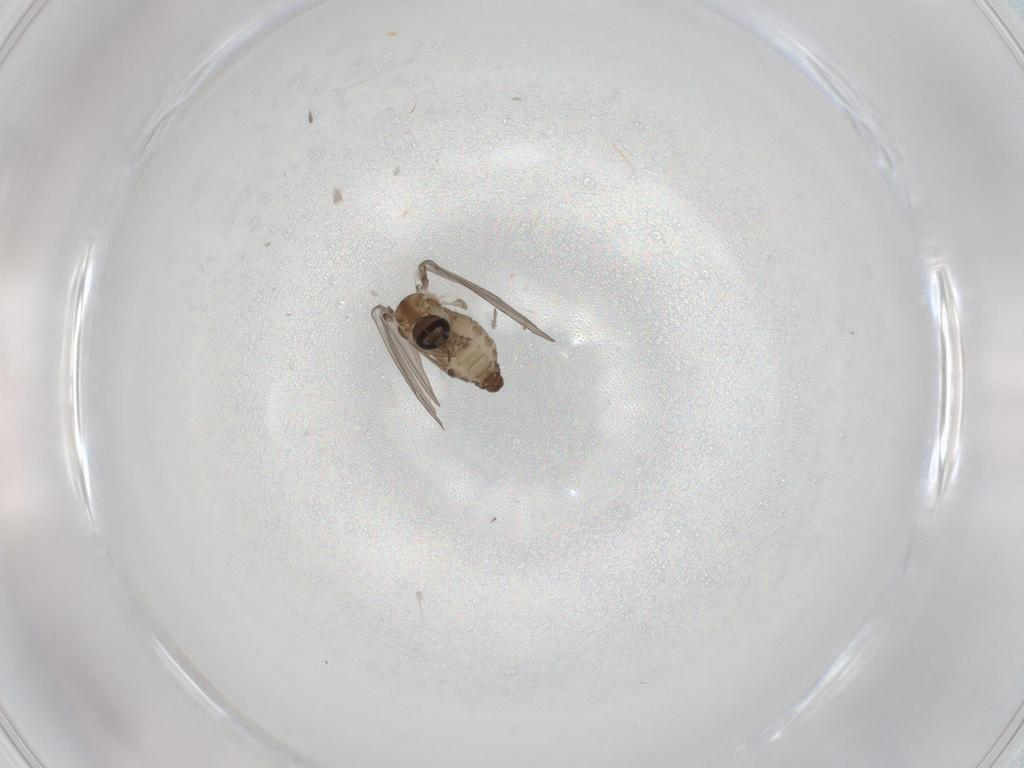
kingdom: Animalia
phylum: Arthropoda
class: Insecta
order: Diptera
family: Psychodidae
